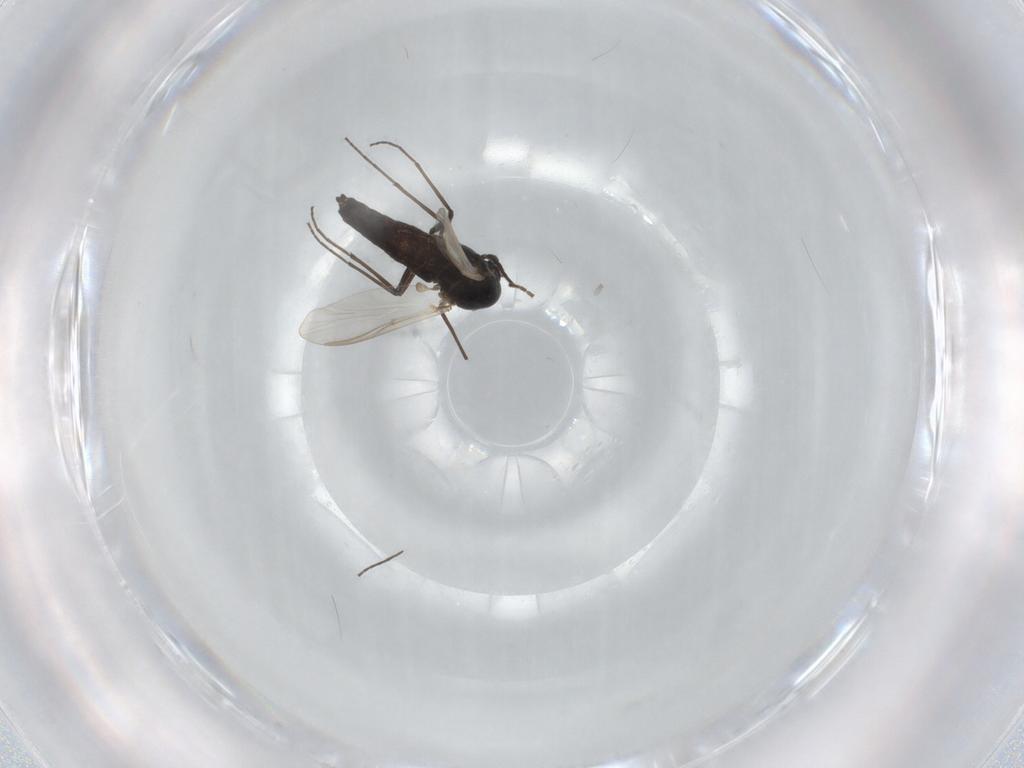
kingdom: Animalia
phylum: Arthropoda
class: Insecta
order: Diptera
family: Chironomidae
